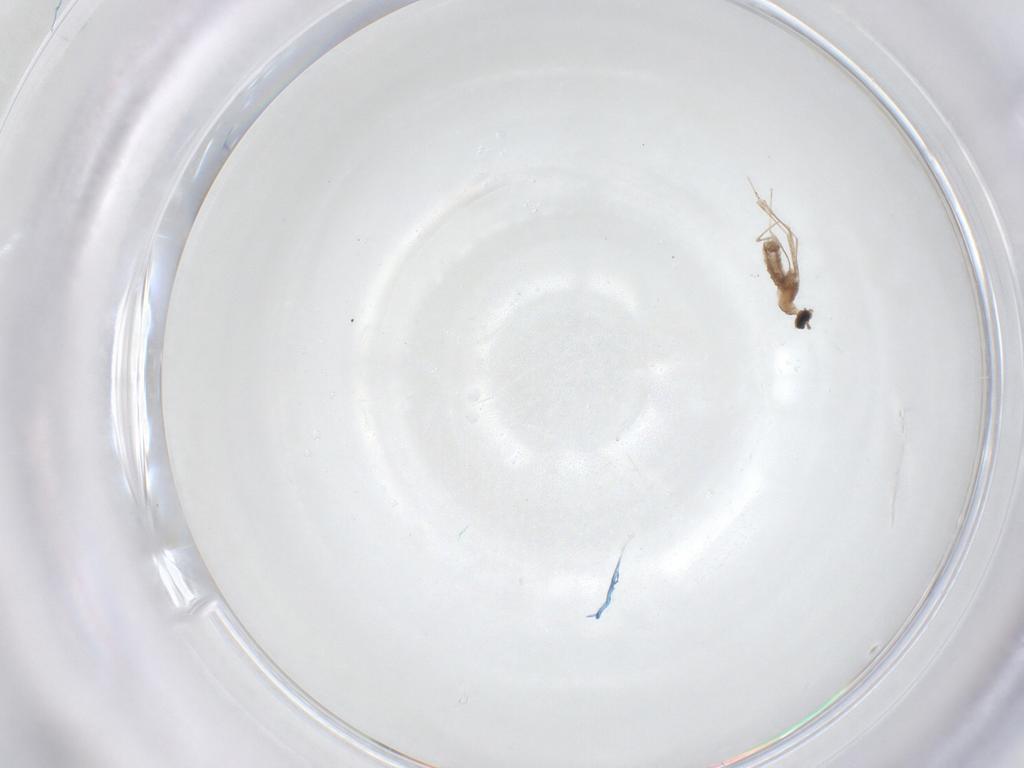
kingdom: Animalia
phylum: Arthropoda
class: Insecta
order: Diptera
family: Cecidomyiidae
